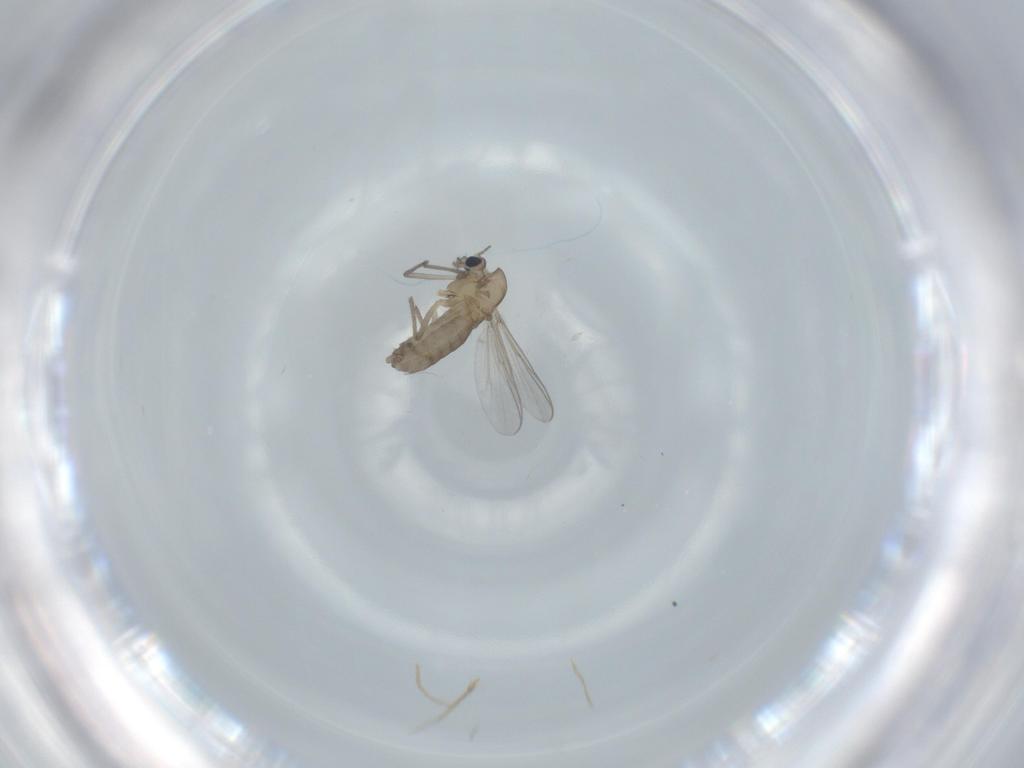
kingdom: Animalia
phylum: Arthropoda
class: Insecta
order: Diptera
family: Chironomidae
